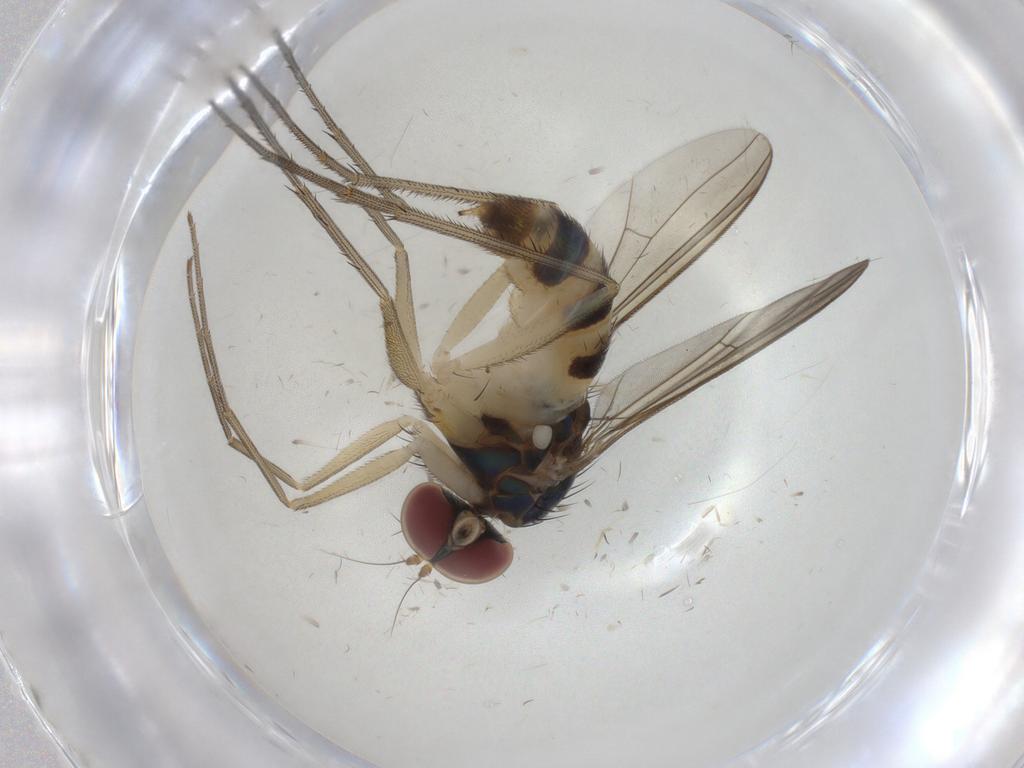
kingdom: Animalia
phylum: Arthropoda
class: Insecta
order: Diptera
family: Dolichopodidae
